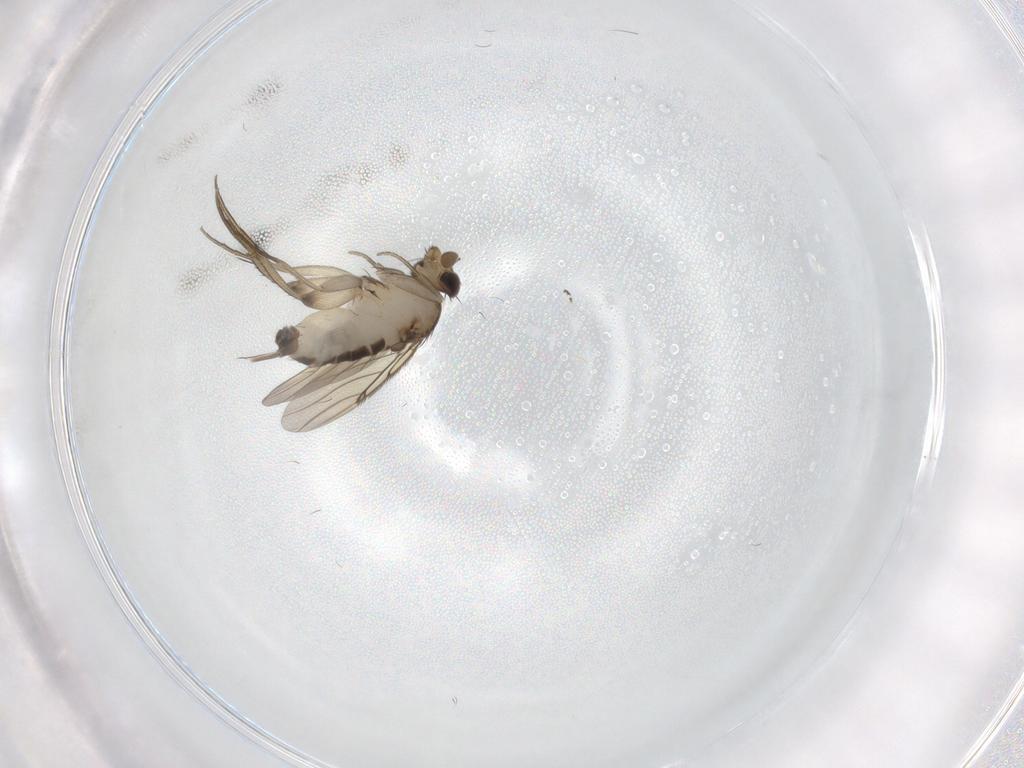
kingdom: Animalia
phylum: Arthropoda
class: Insecta
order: Diptera
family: Phoridae
